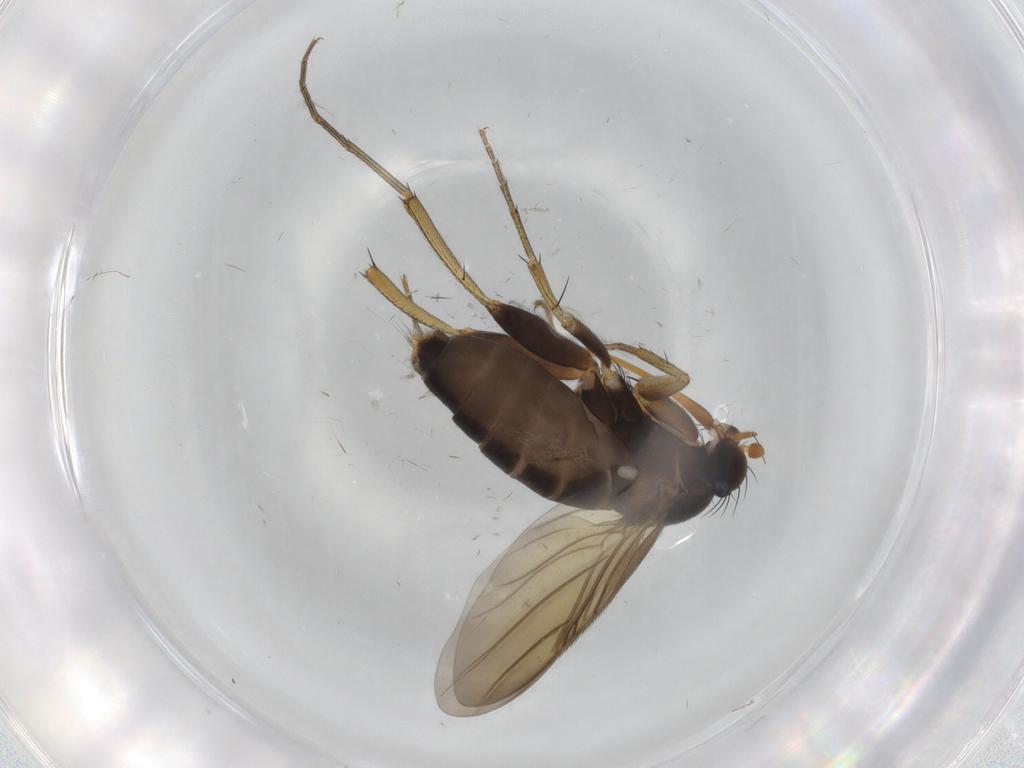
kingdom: Animalia
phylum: Arthropoda
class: Insecta
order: Diptera
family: Phoridae
